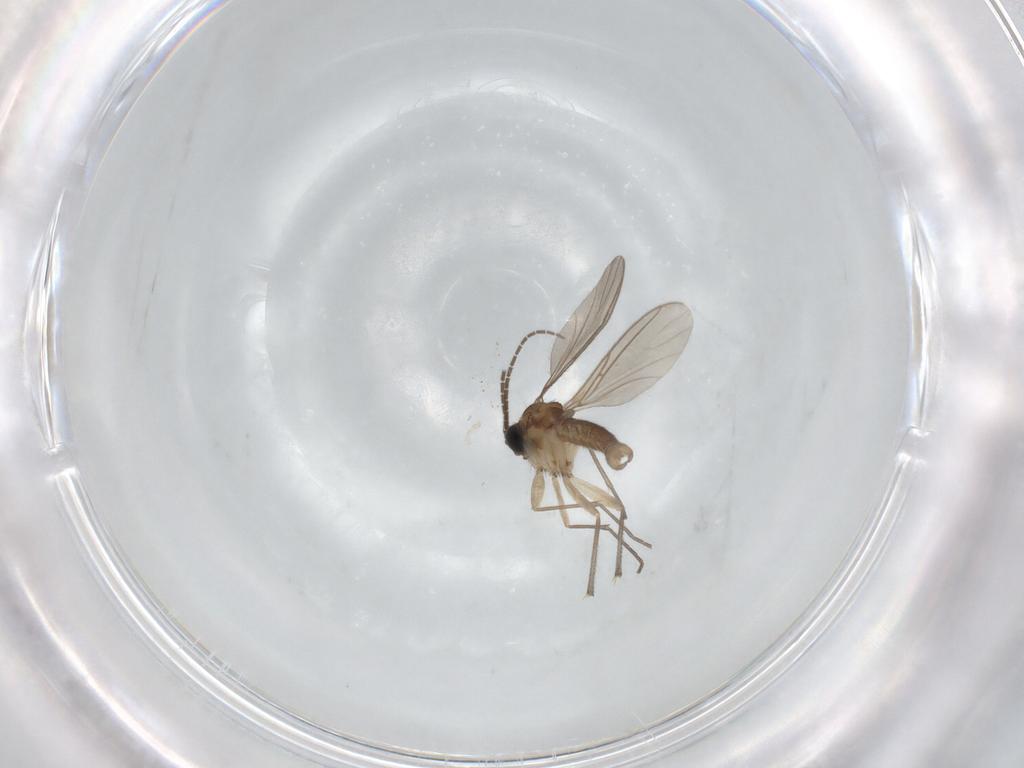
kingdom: Animalia
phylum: Arthropoda
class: Insecta
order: Diptera
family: Sciaridae
